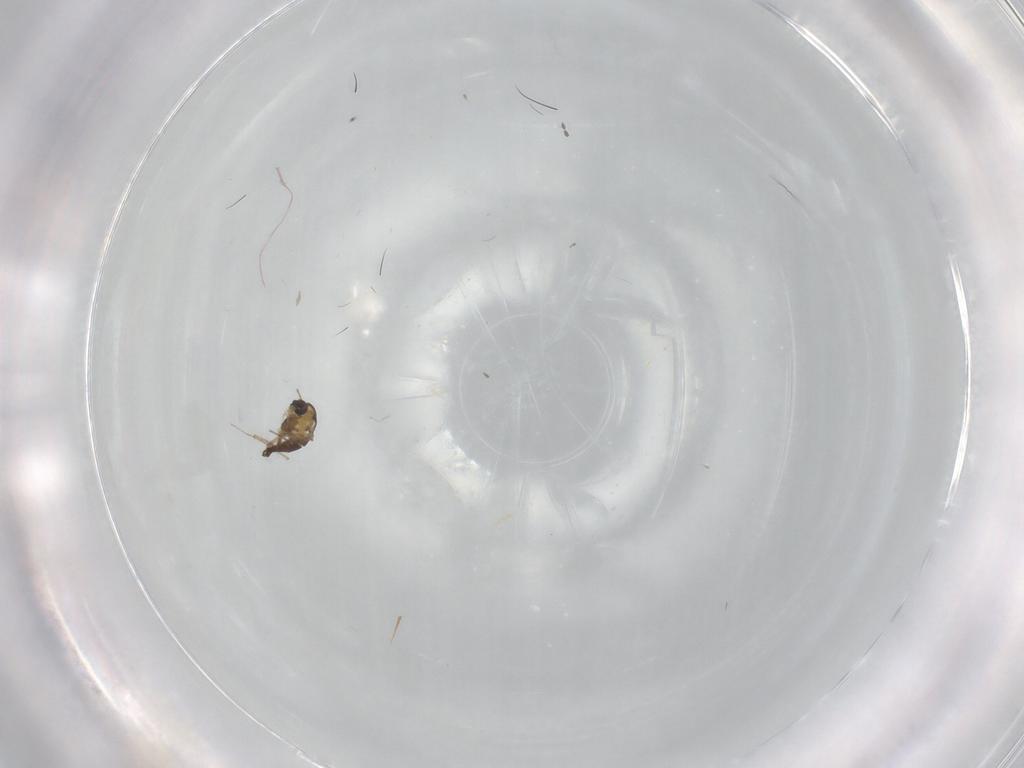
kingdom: Animalia
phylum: Arthropoda
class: Insecta
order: Diptera
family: Chironomidae
